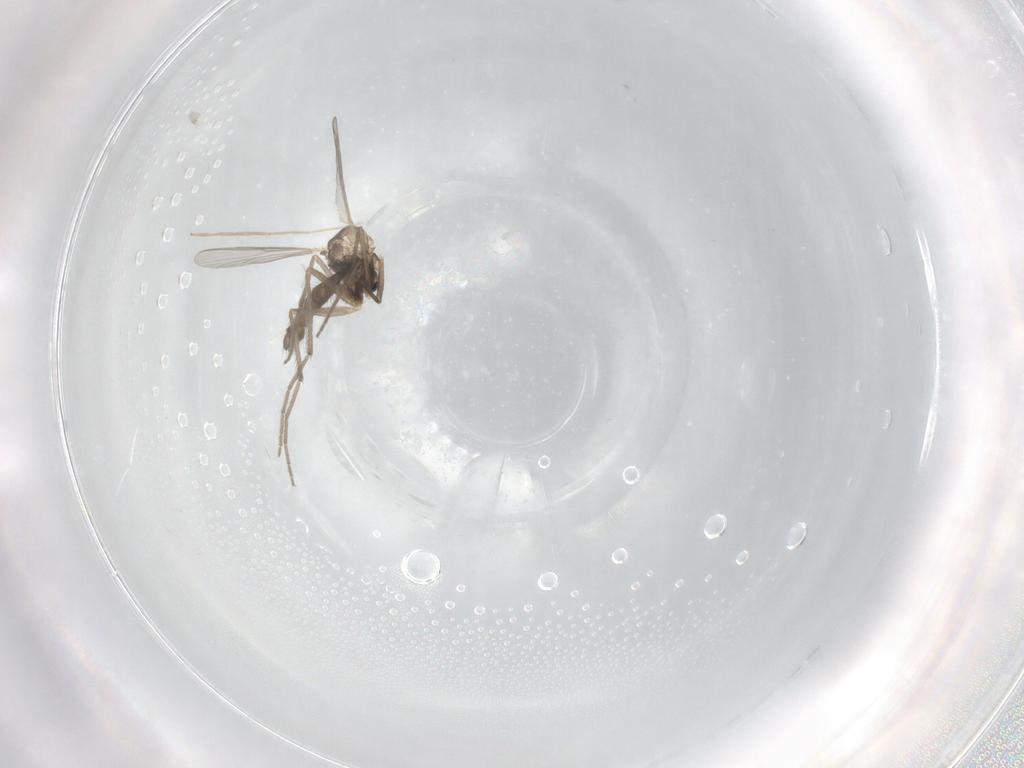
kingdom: Animalia
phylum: Arthropoda
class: Insecta
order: Diptera
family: Chironomidae
